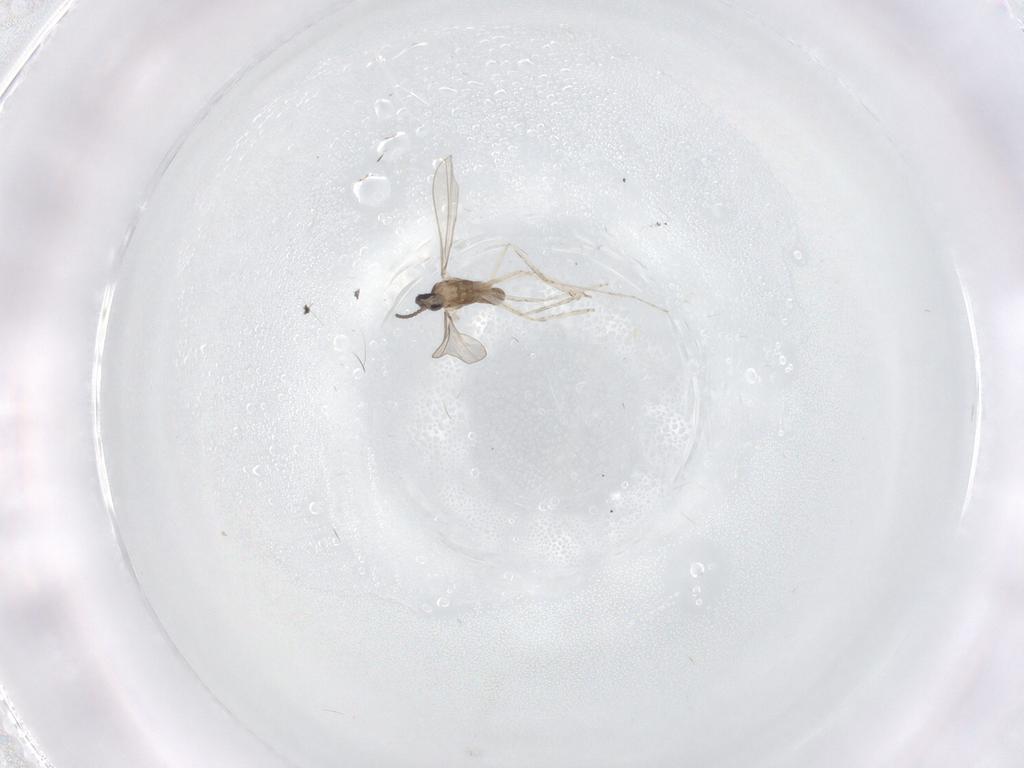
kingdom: Animalia
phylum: Arthropoda
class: Insecta
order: Diptera
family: Cecidomyiidae
